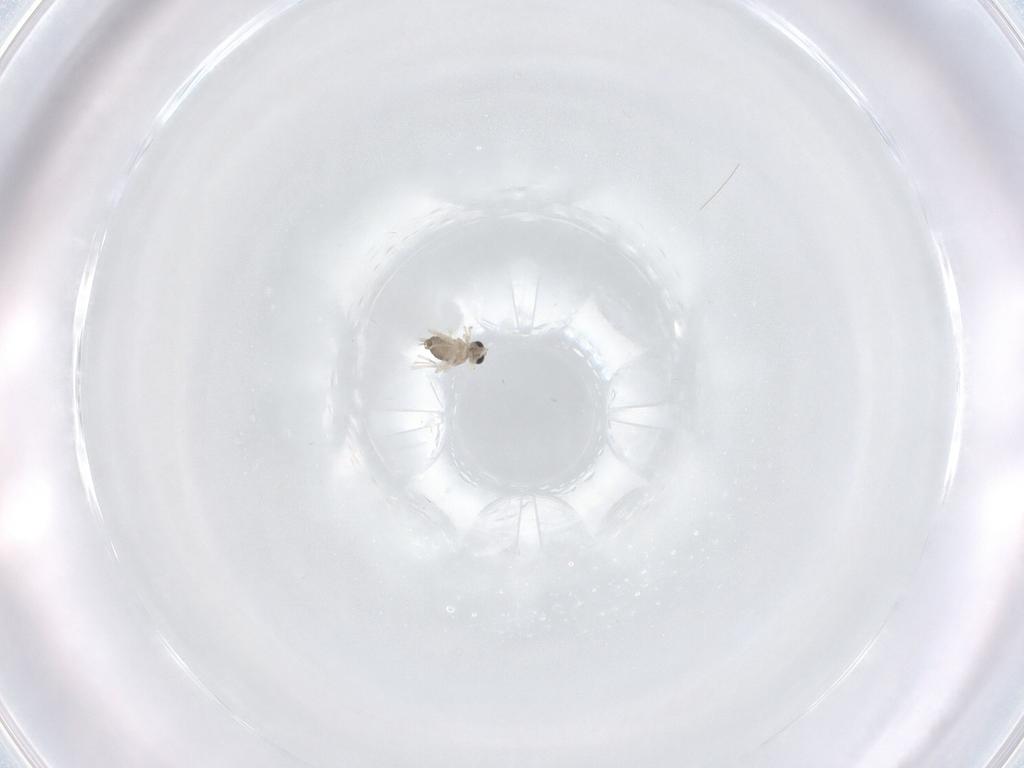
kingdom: Animalia
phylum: Arthropoda
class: Insecta
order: Diptera
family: Cecidomyiidae
